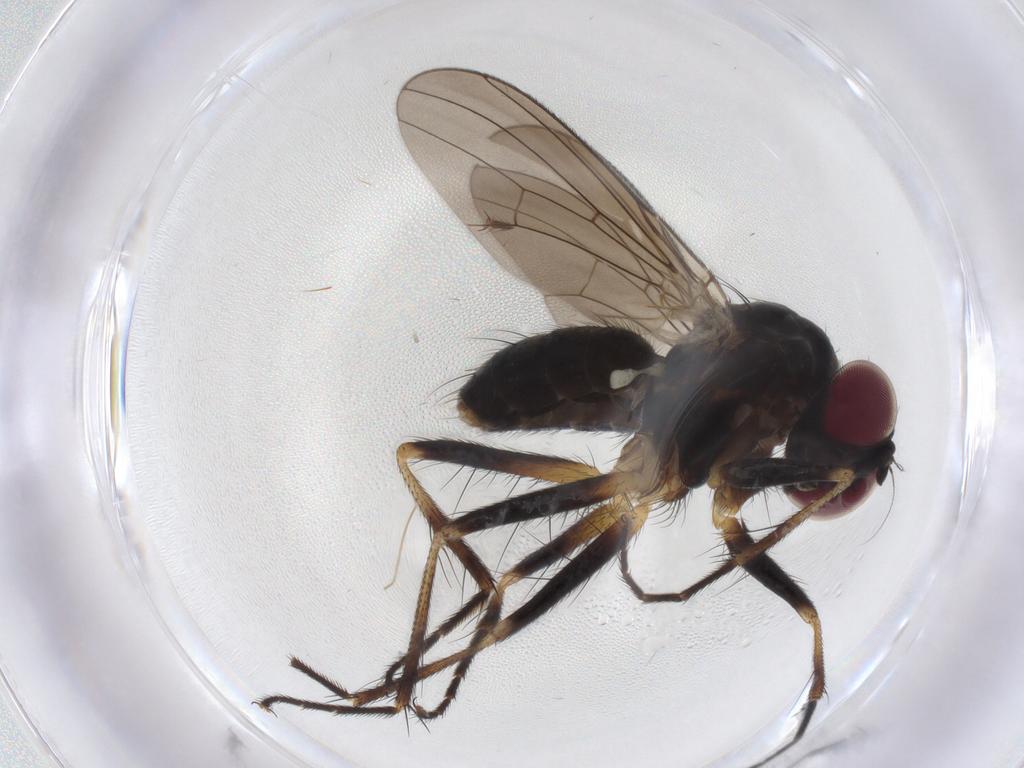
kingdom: Animalia
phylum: Arthropoda
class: Insecta
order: Diptera
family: Anthomyiidae
